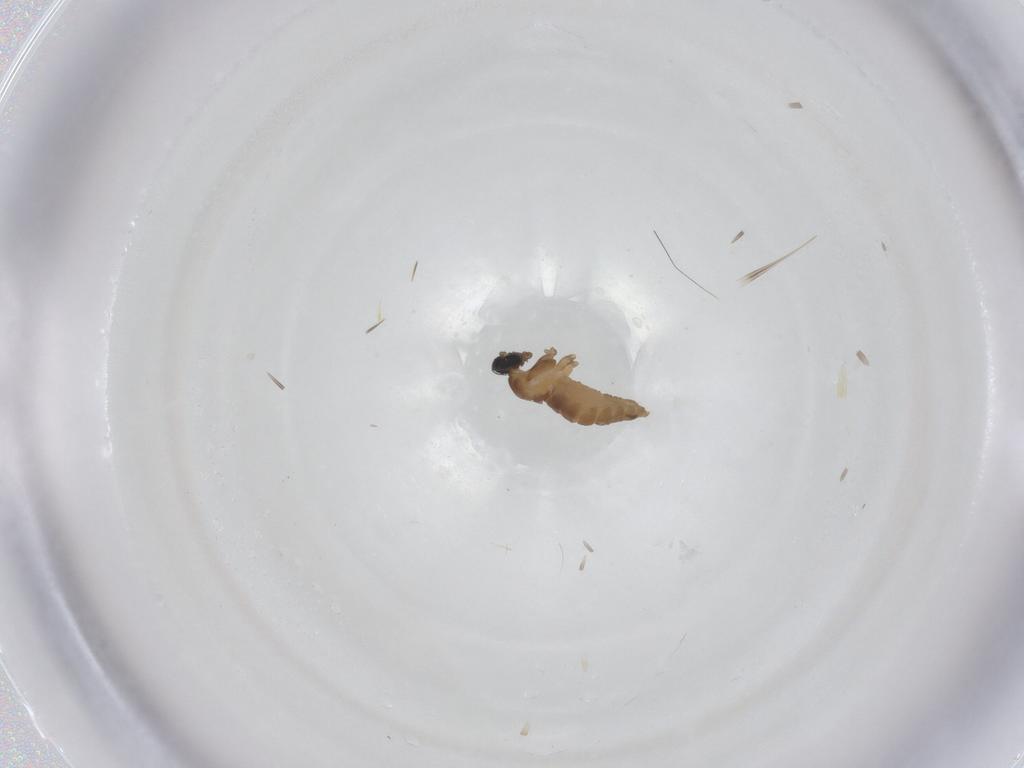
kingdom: Animalia
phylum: Arthropoda
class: Insecta
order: Diptera
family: Cecidomyiidae
